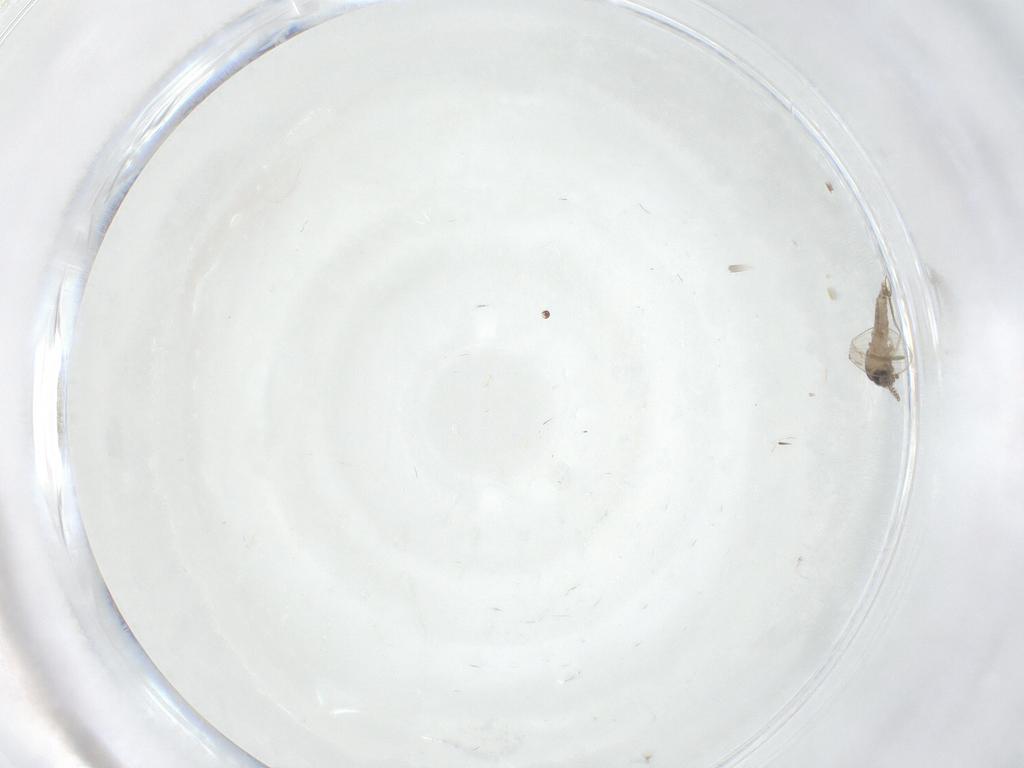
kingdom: Animalia
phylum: Arthropoda
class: Insecta
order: Diptera
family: Psychodidae
